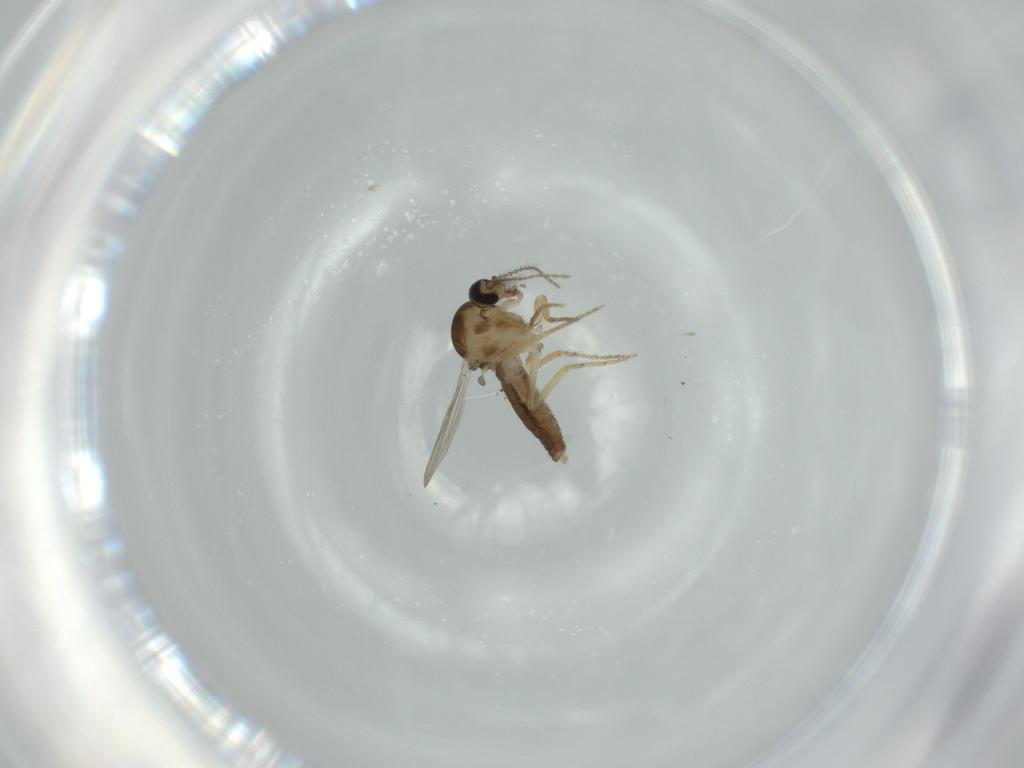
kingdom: Animalia
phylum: Arthropoda
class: Insecta
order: Diptera
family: Ceratopogonidae
